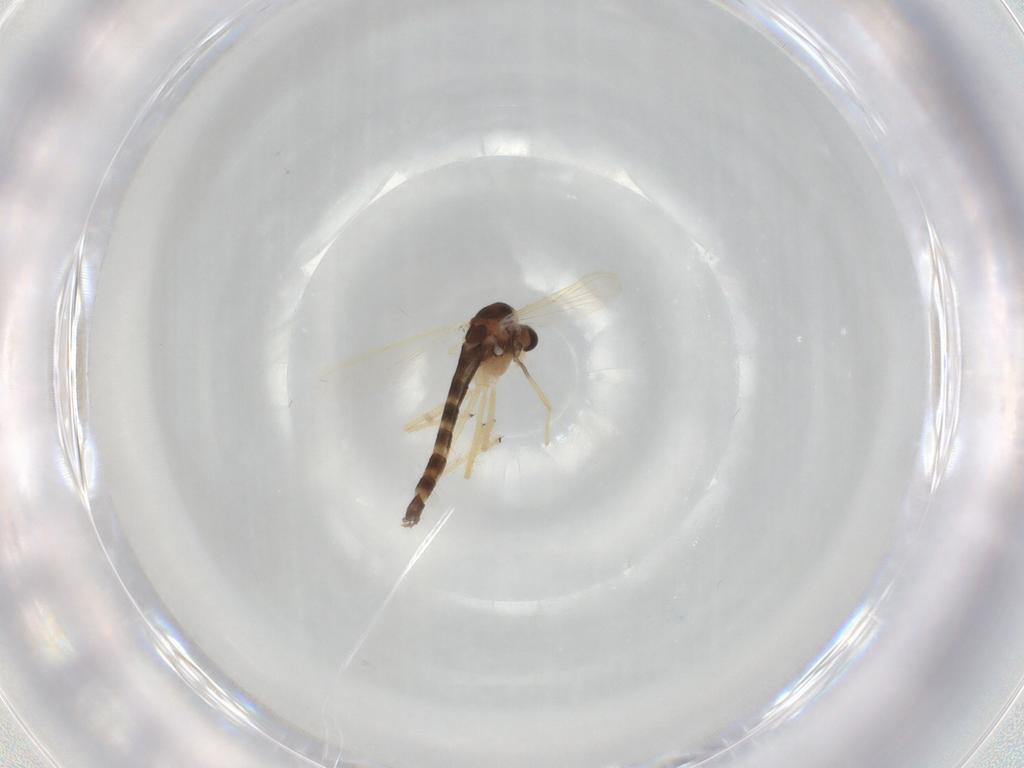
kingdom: Animalia
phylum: Arthropoda
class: Insecta
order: Diptera
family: Chironomidae
